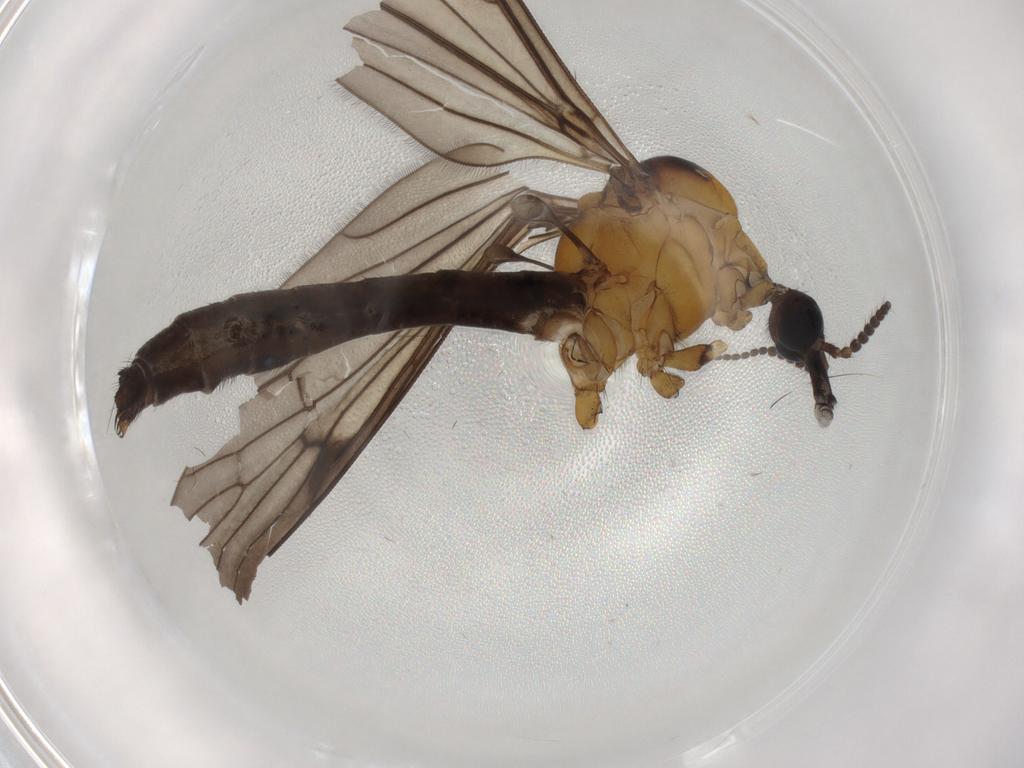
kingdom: Animalia
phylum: Arthropoda
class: Insecta
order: Diptera
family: Limoniidae
